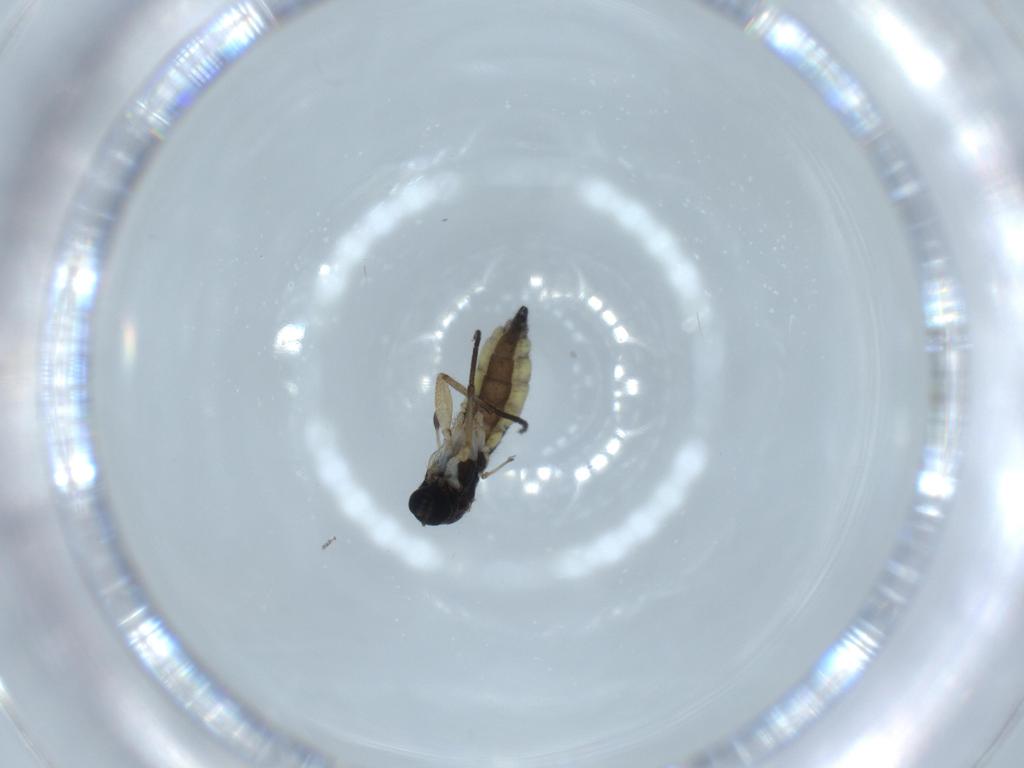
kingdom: Animalia
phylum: Arthropoda
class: Insecta
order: Diptera
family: Sciaridae
